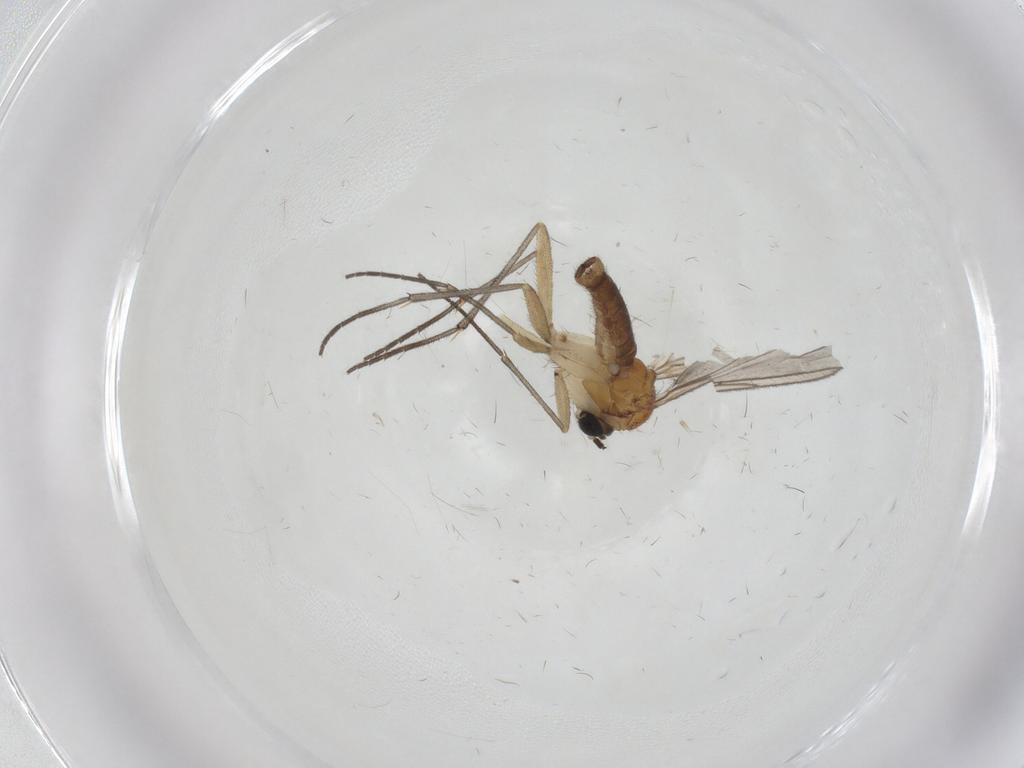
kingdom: Animalia
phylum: Arthropoda
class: Insecta
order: Diptera
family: Sciaridae
